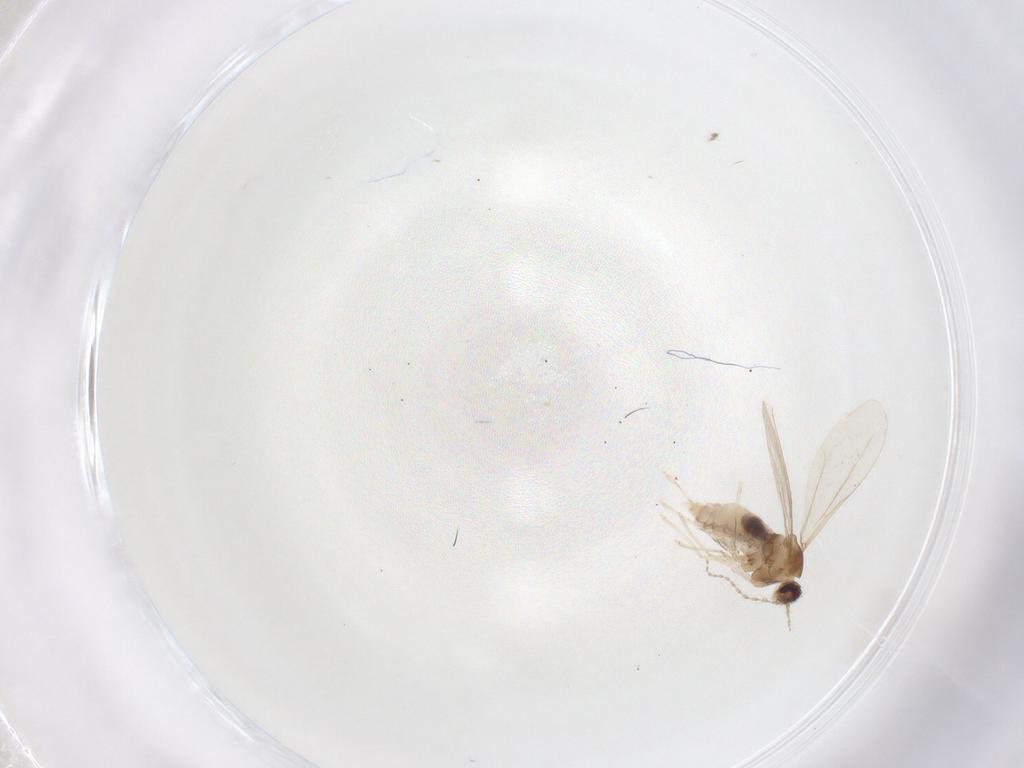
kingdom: Animalia
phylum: Arthropoda
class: Insecta
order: Diptera
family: Cecidomyiidae
